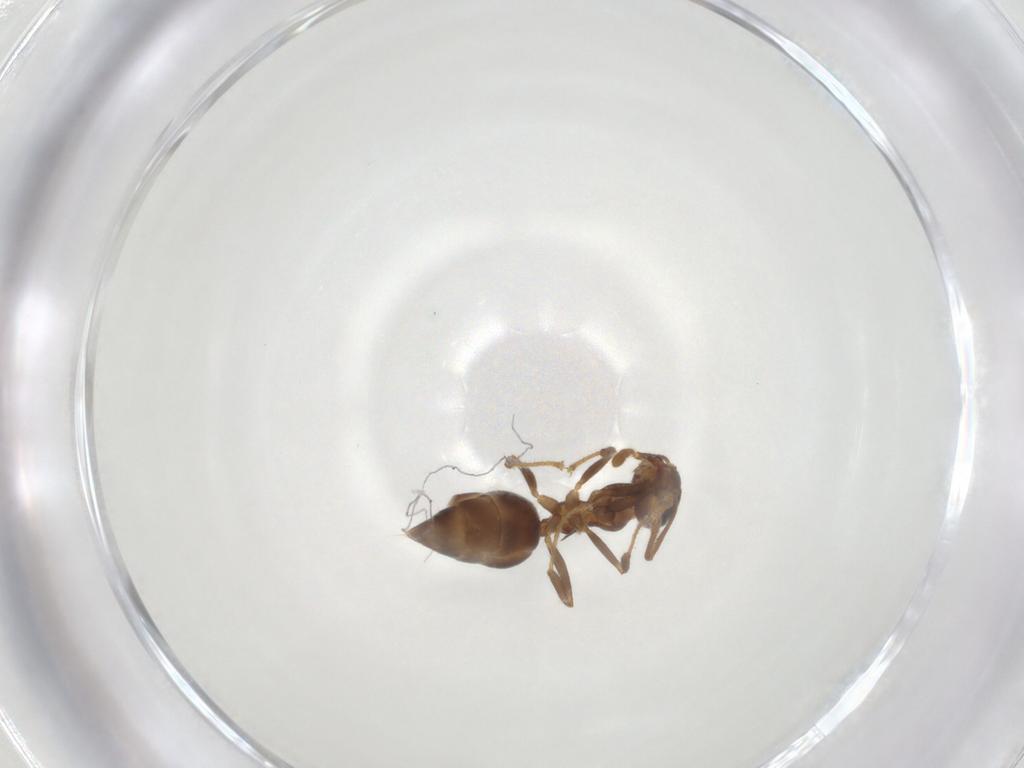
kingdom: Animalia
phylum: Arthropoda
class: Insecta
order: Hymenoptera
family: Formicidae
